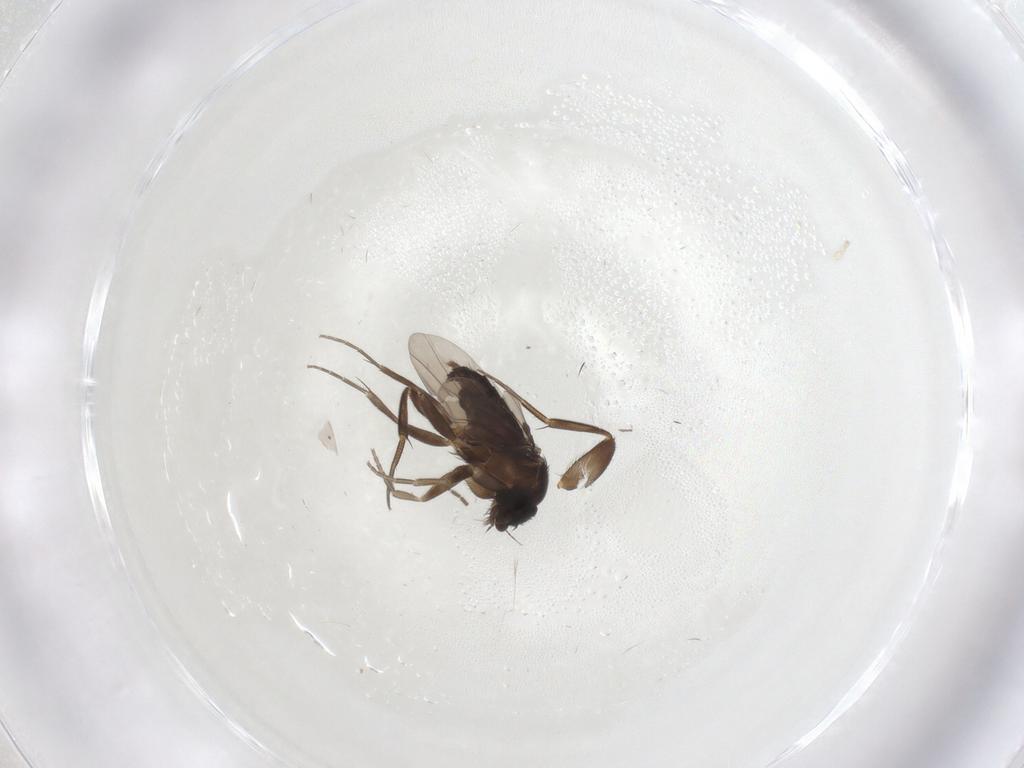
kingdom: Animalia
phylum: Arthropoda
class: Insecta
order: Diptera
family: Phoridae
